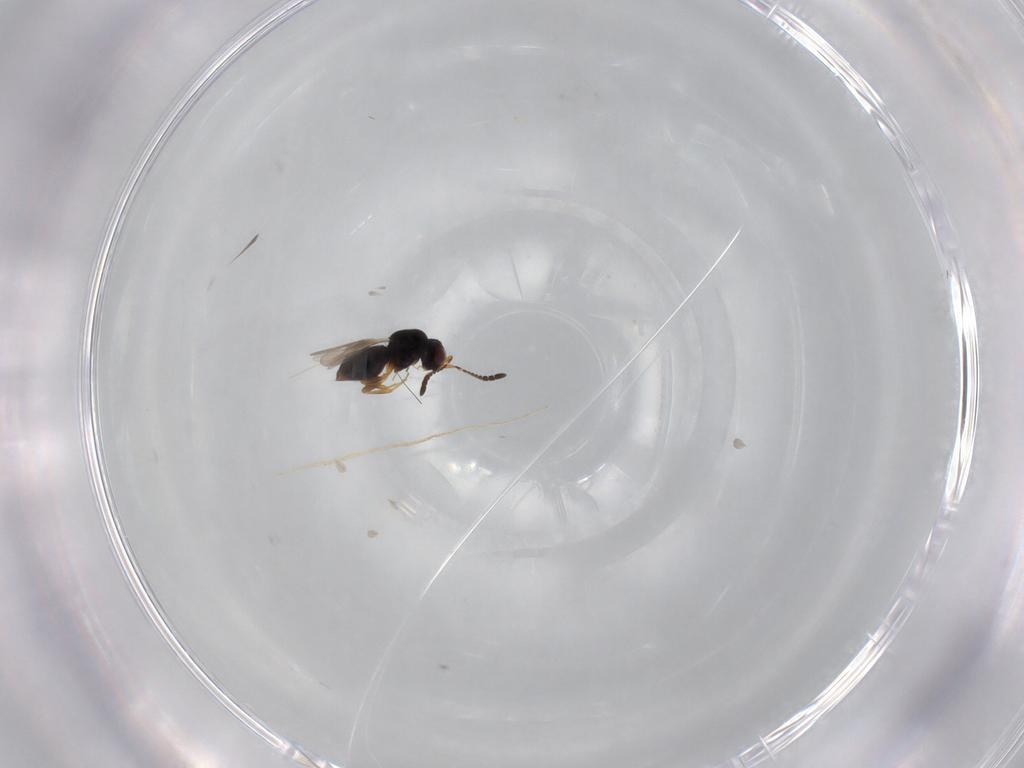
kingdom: Animalia
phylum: Arthropoda
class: Insecta
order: Hymenoptera
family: Ceraphronidae
